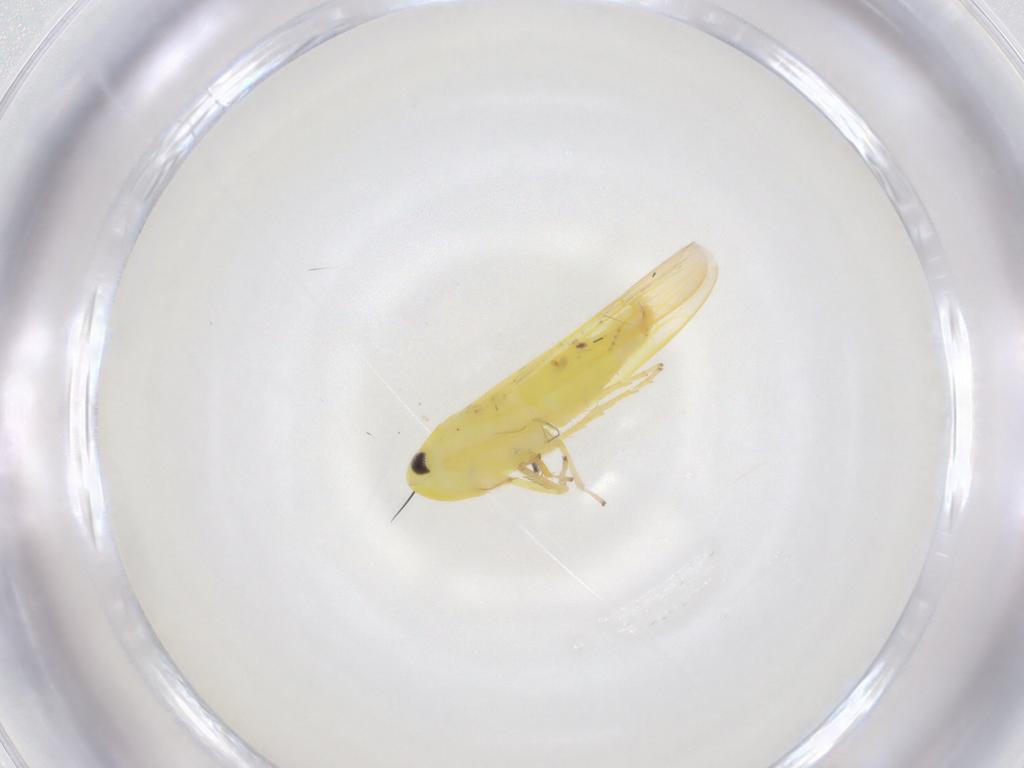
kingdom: Animalia
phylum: Arthropoda
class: Insecta
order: Hemiptera
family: Cicadellidae
